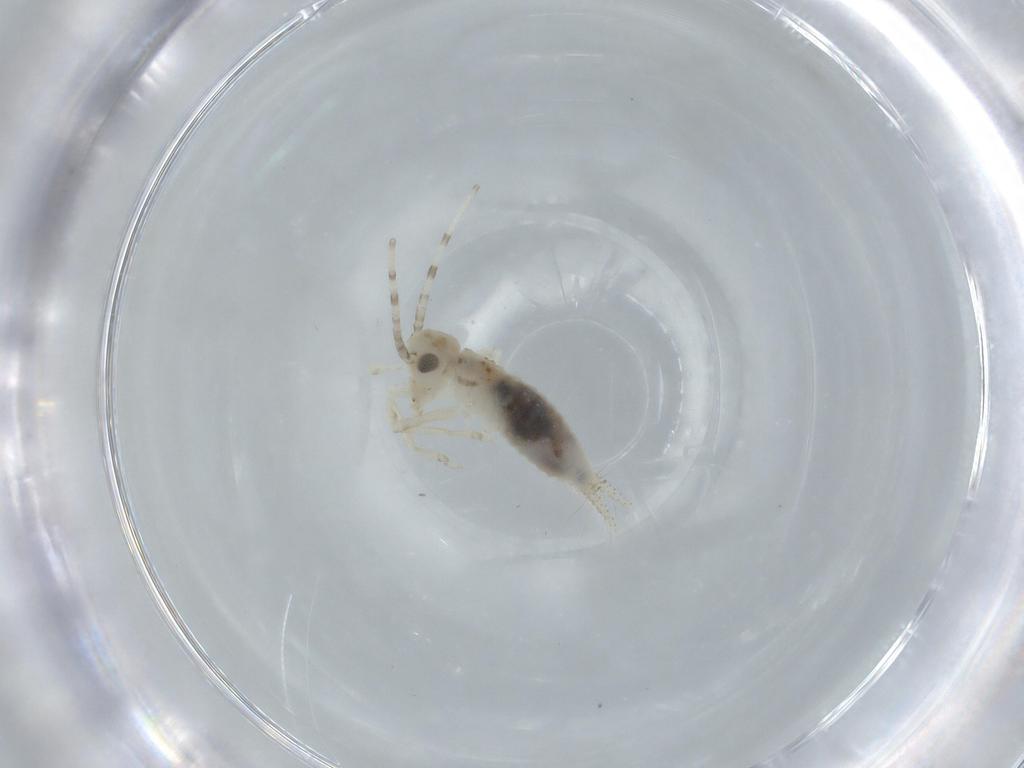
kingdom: Animalia
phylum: Arthropoda
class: Insecta
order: Orthoptera
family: Trigonidiidae
